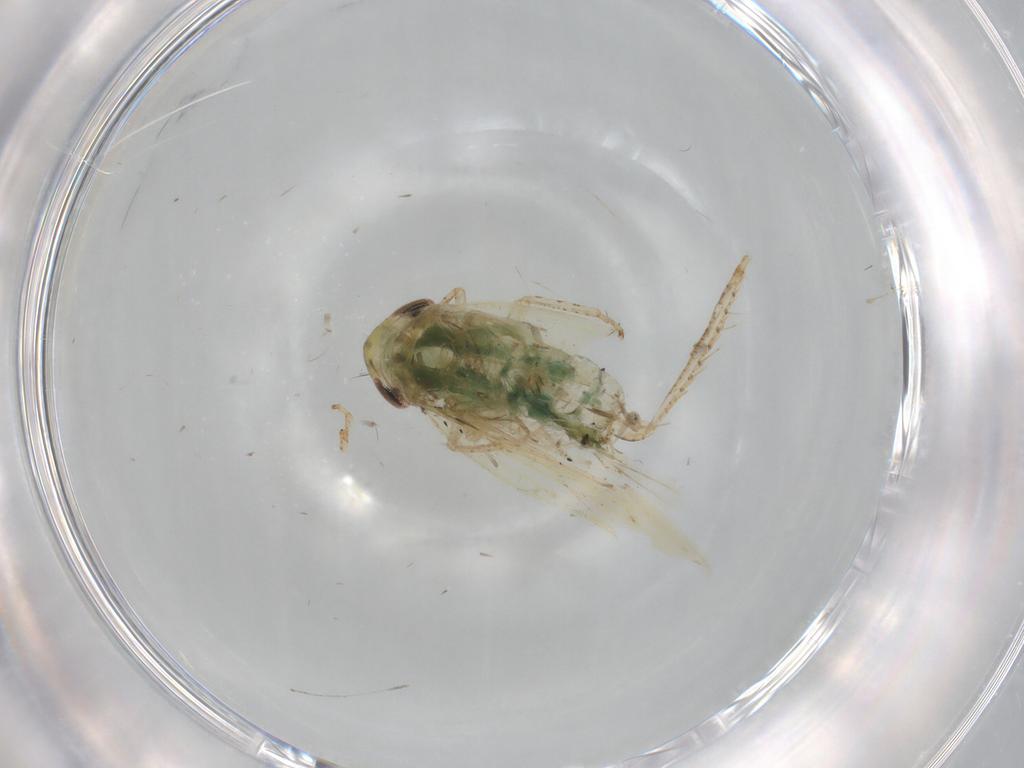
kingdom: Animalia
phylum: Arthropoda
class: Insecta
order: Hemiptera
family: Cicadellidae
